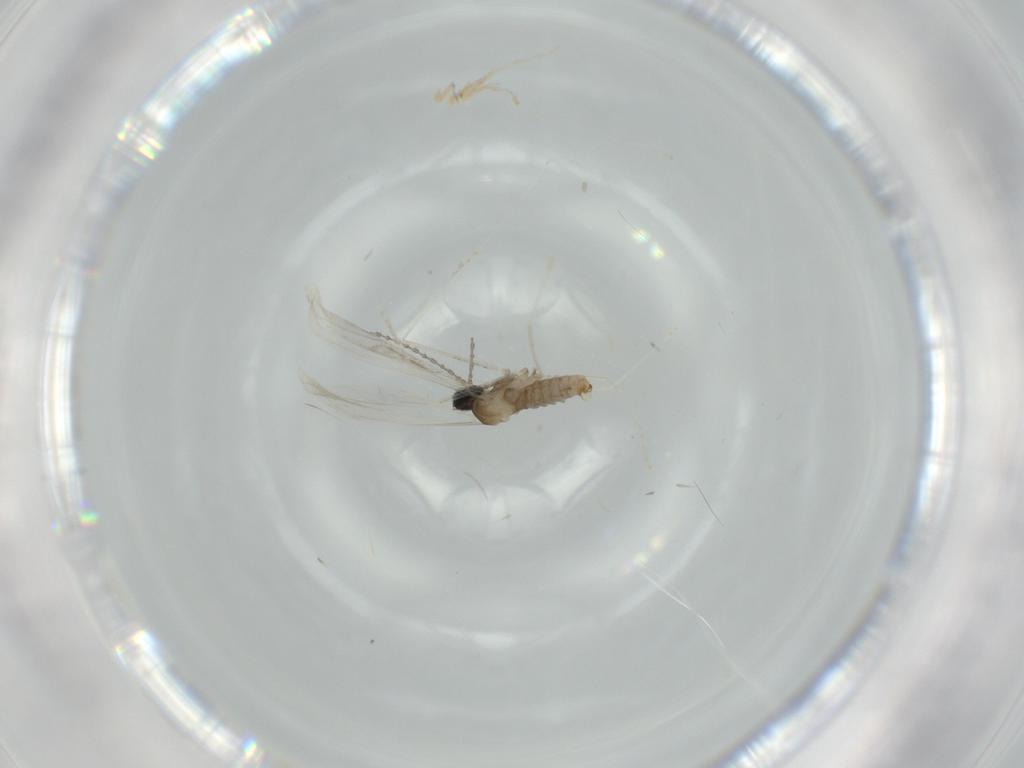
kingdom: Animalia
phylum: Arthropoda
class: Insecta
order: Diptera
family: Cecidomyiidae
